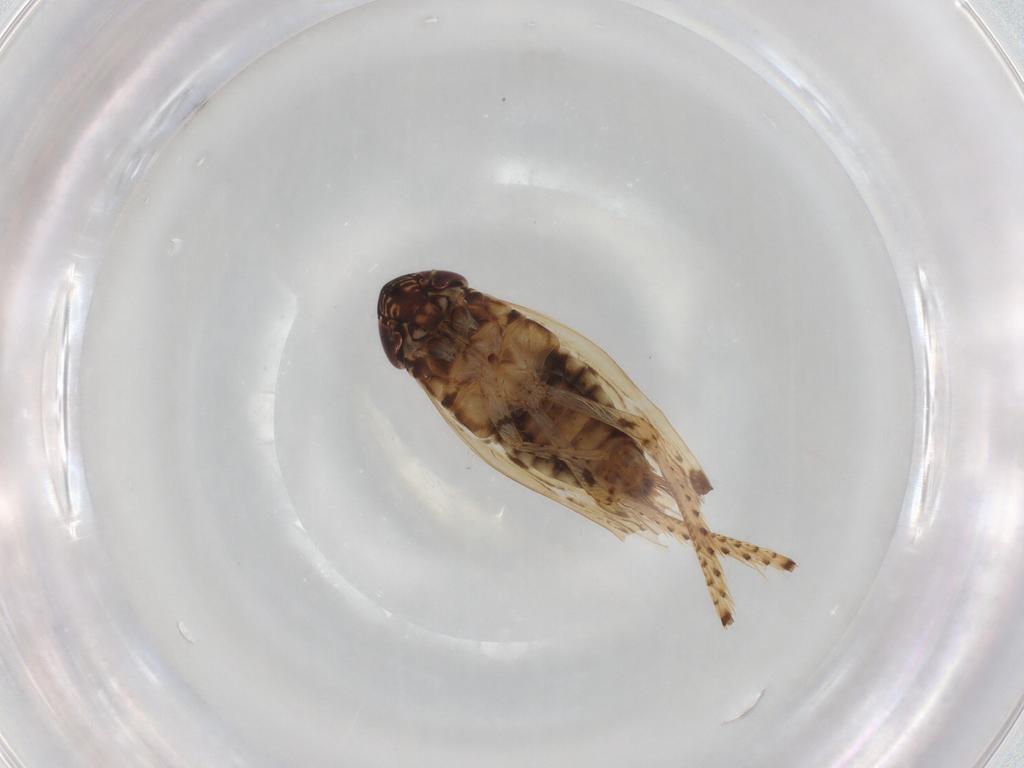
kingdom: Animalia
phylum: Arthropoda
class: Insecta
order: Hemiptera
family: Cicadellidae
